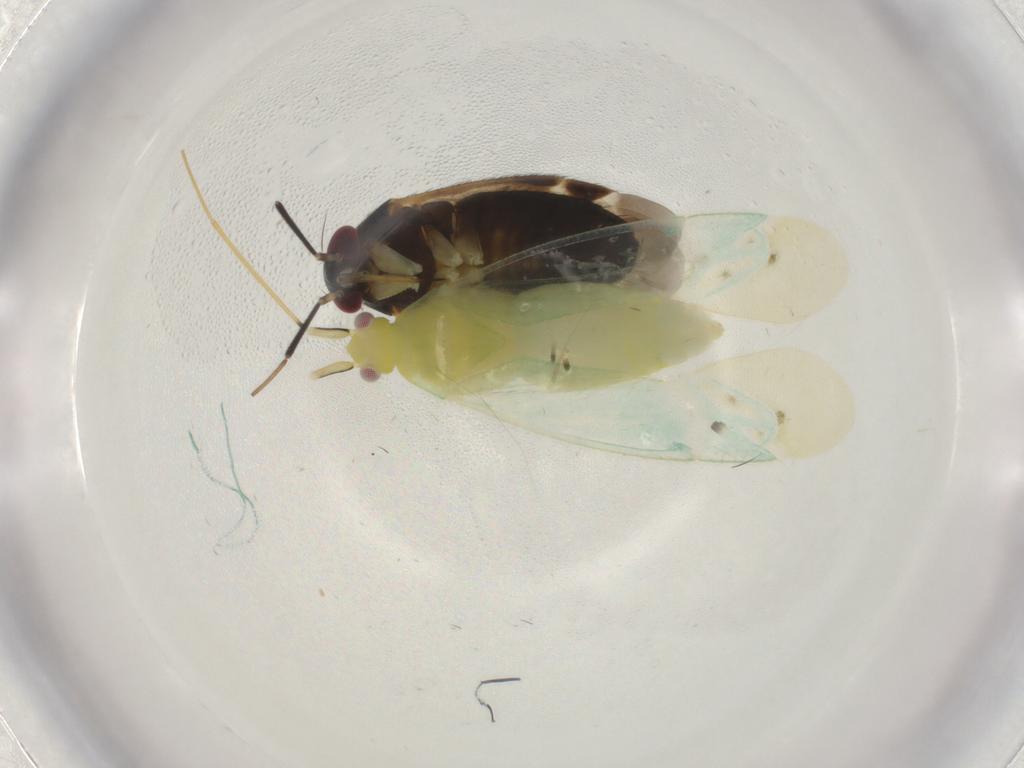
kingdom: Animalia
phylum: Arthropoda
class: Insecta
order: Hemiptera
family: Miridae
